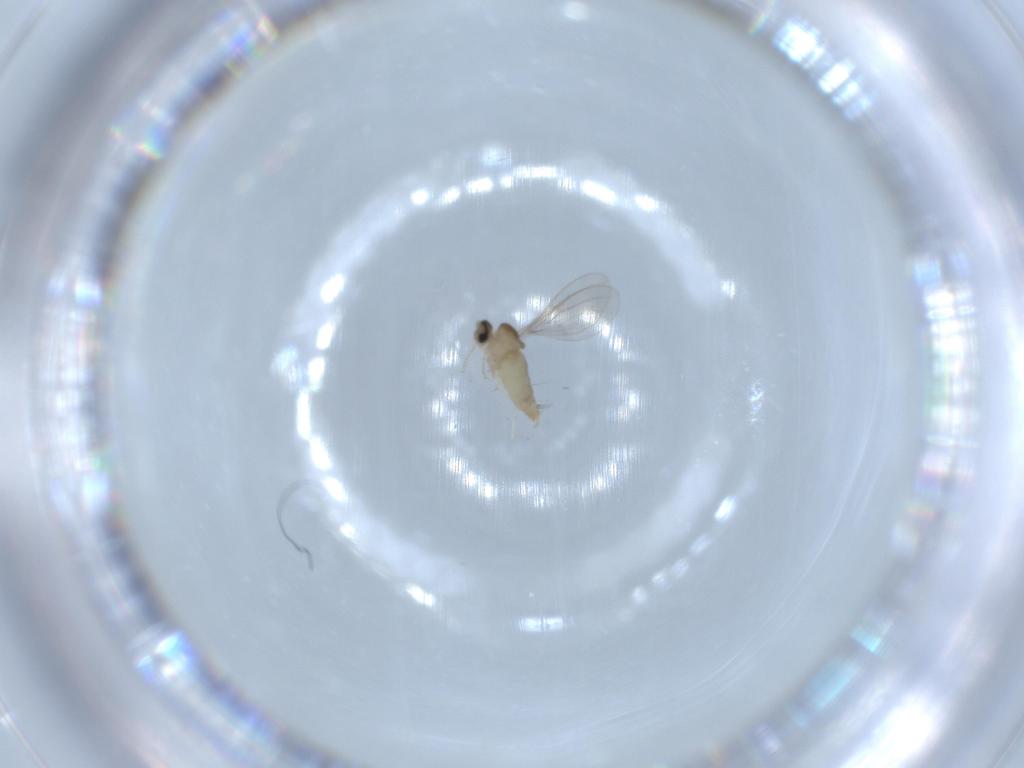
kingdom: Animalia
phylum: Arthropoda
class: Insecta
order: Diptera
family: Cecidomyiidae
